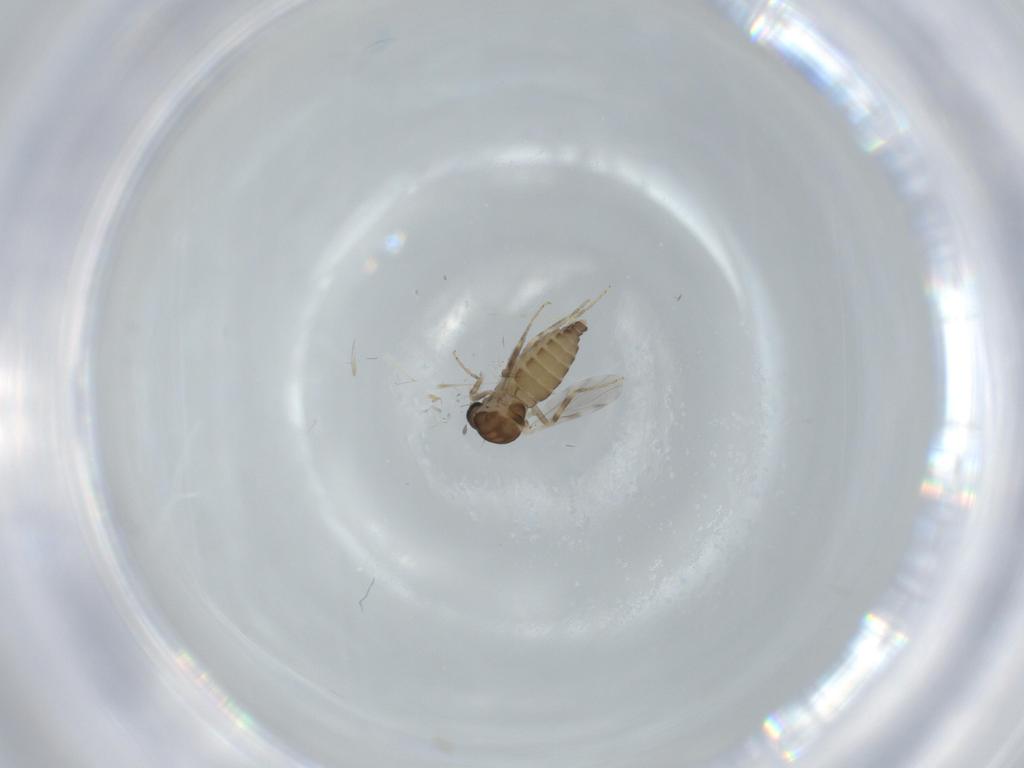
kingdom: Animalia
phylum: Arthropoda
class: Insecta
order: Diptera
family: Ceratopogonidae
